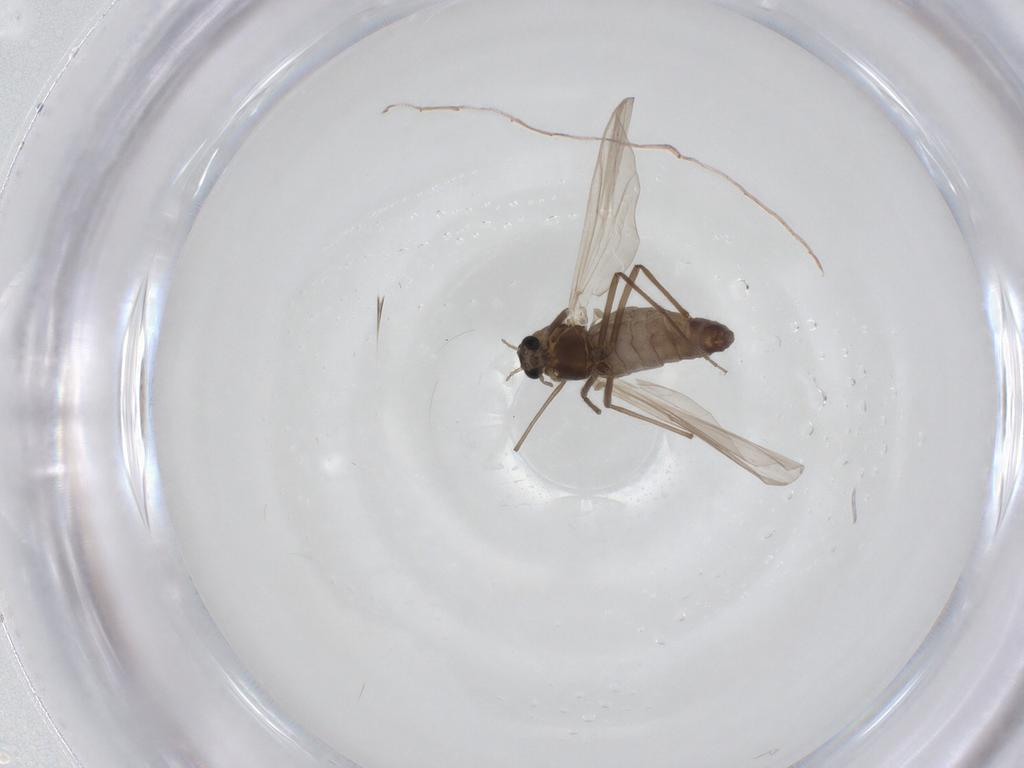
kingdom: Animalia
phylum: Arthropoda
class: Insecta
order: Diptera
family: Chironomidae
